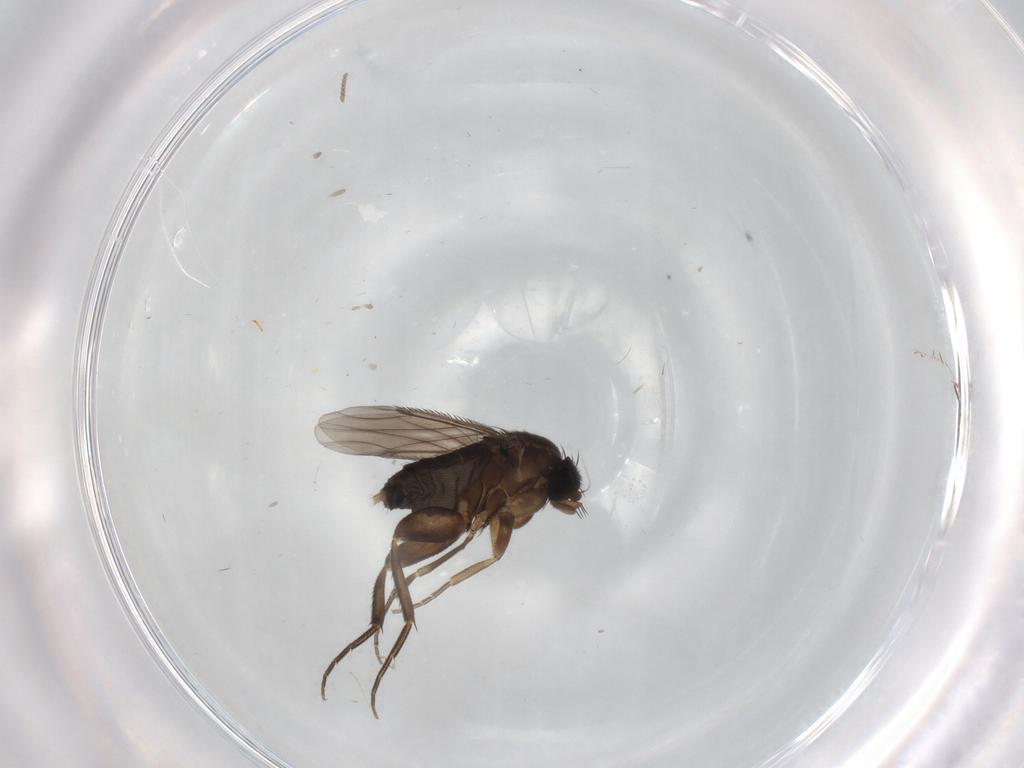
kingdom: Animalia
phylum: Arthropoda
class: Insecta
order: Diptera
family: Phoridae
